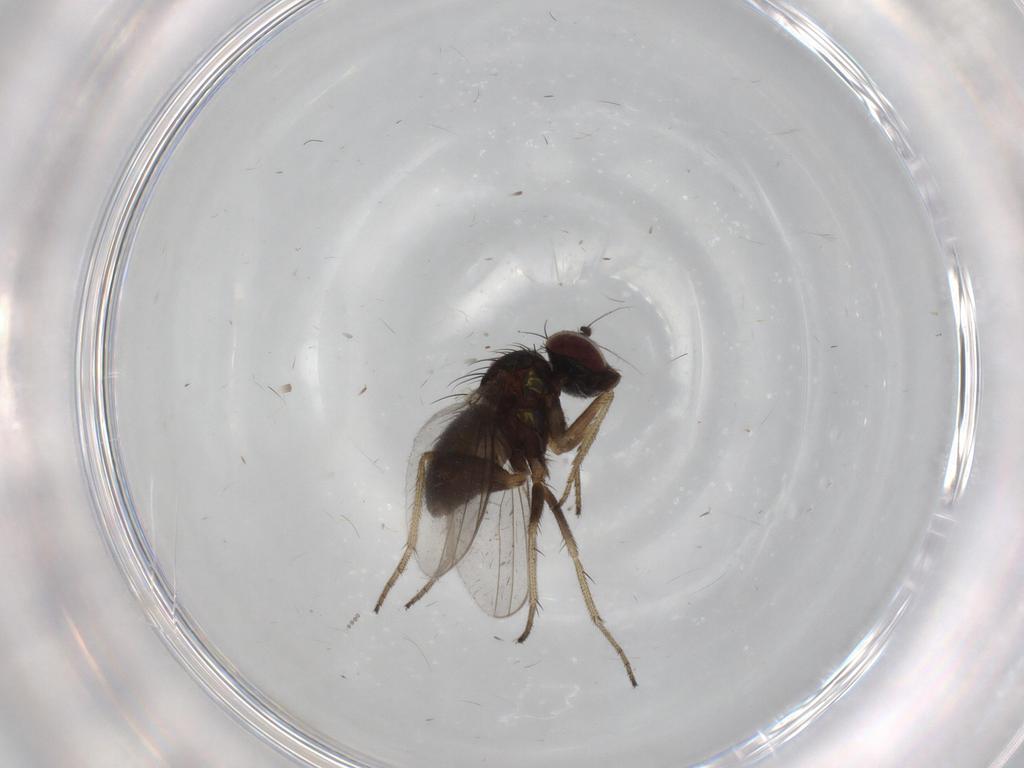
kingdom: Animalia
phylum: Arthropoda
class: Insecta
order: Diptera
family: Dolichopodidae
